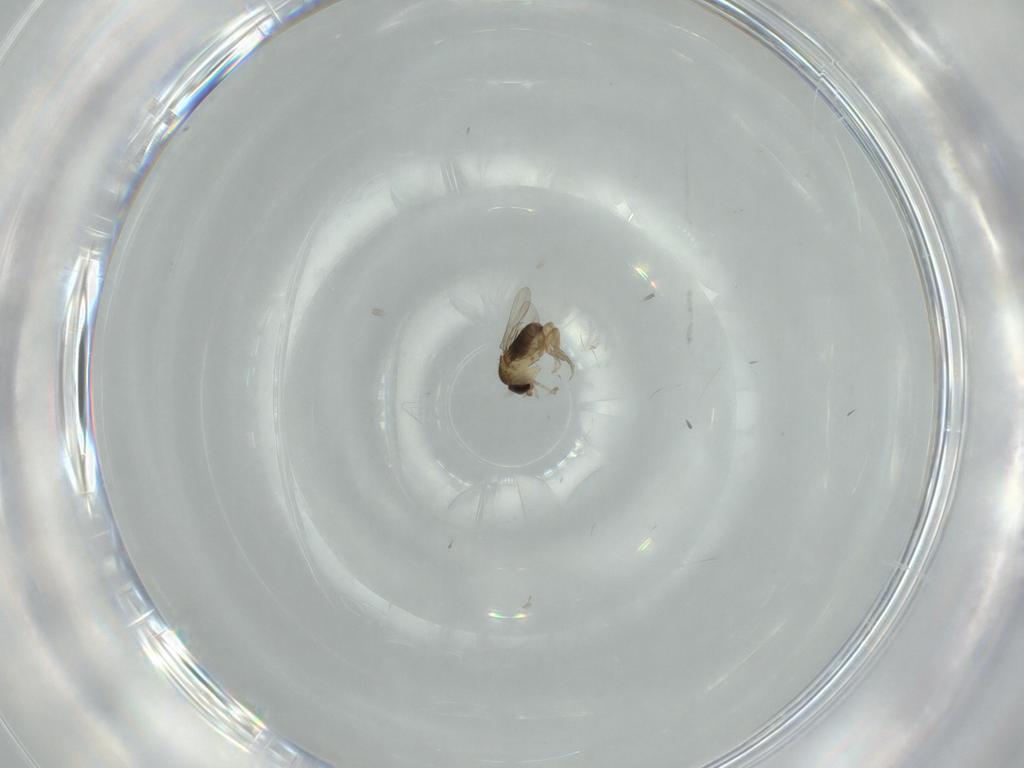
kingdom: Animalia
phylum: Arthropoda
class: Insecta
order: Diptera
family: Phoridae
